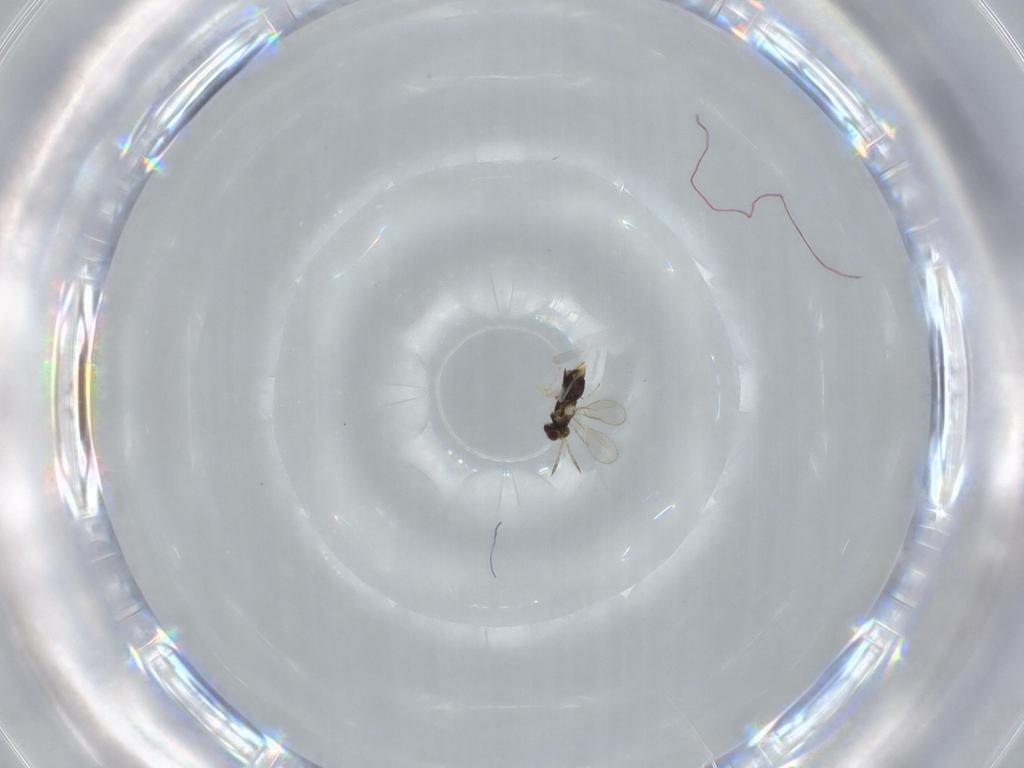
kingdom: Animalia
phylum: Arthropoda
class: Insecta
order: Hymenoptera
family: Aphelinidae
